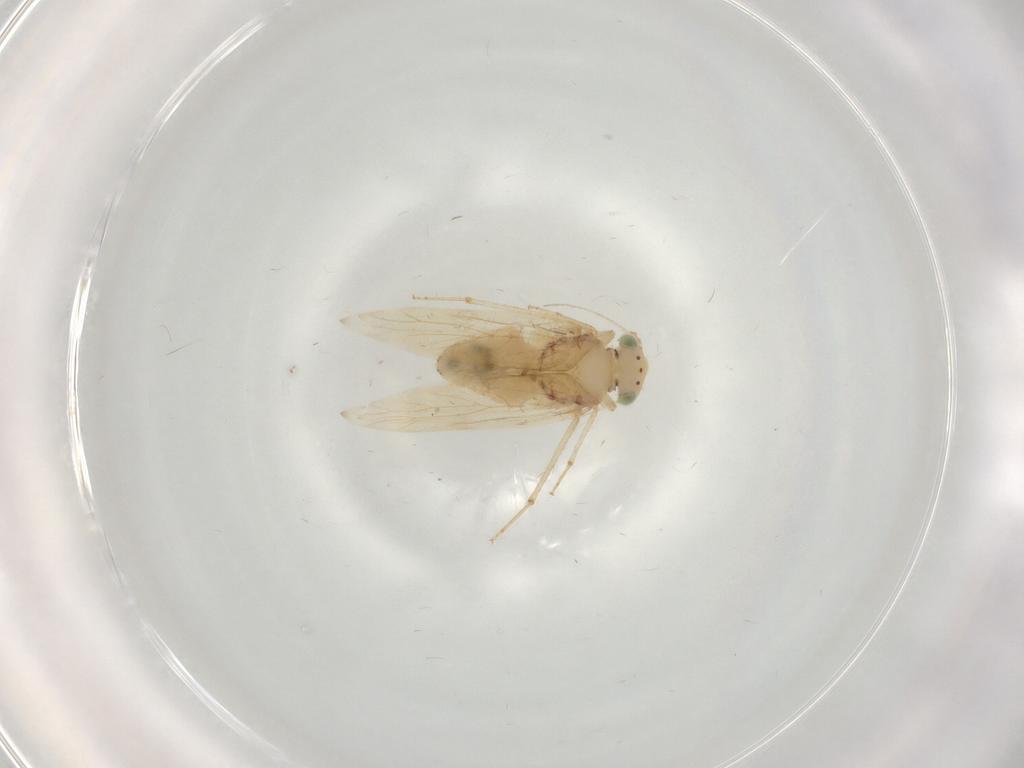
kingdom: Animalia
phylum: Arthropoda
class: Insecta
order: Psocodea
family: Lepidopsocidae
